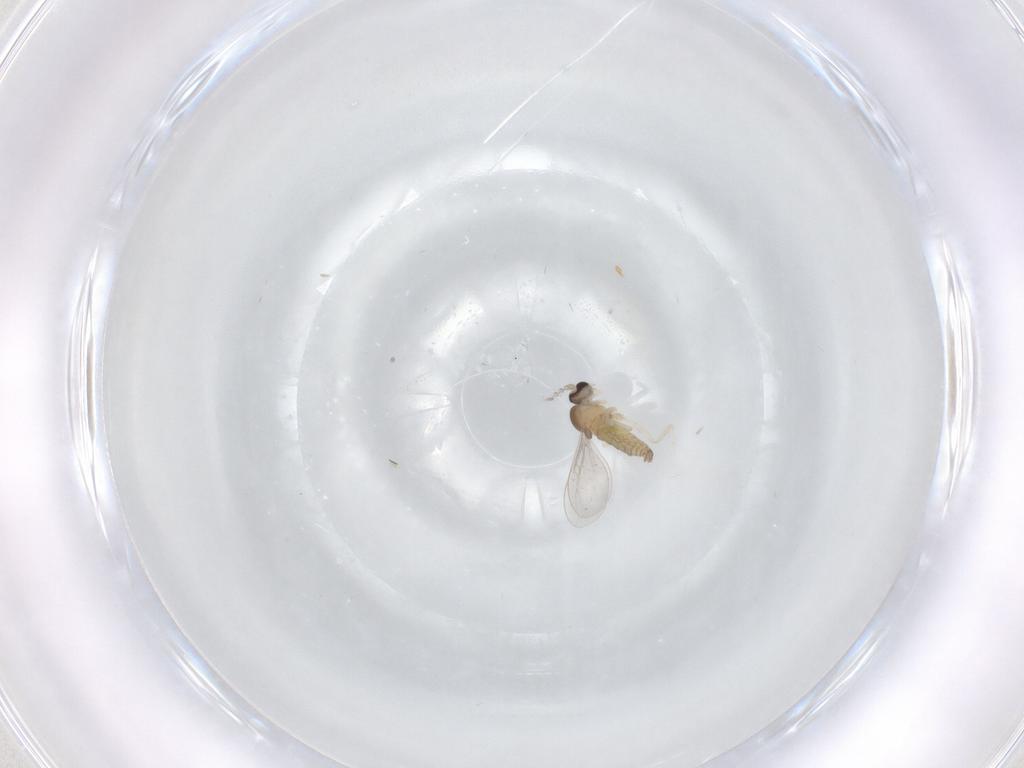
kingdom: Animalia
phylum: Arthropoda
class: Insecta
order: Diptera
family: Cecidomyiidae
